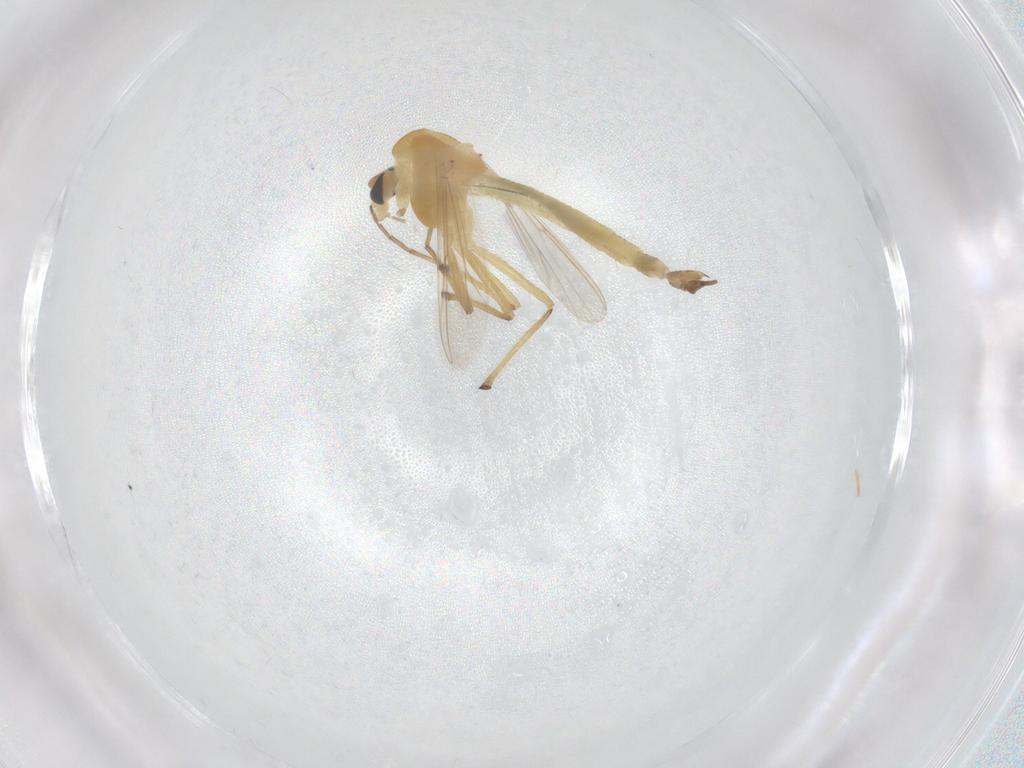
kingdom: Animalia
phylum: Arthropoda
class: Insecta
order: Diptera
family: Chironomidae
